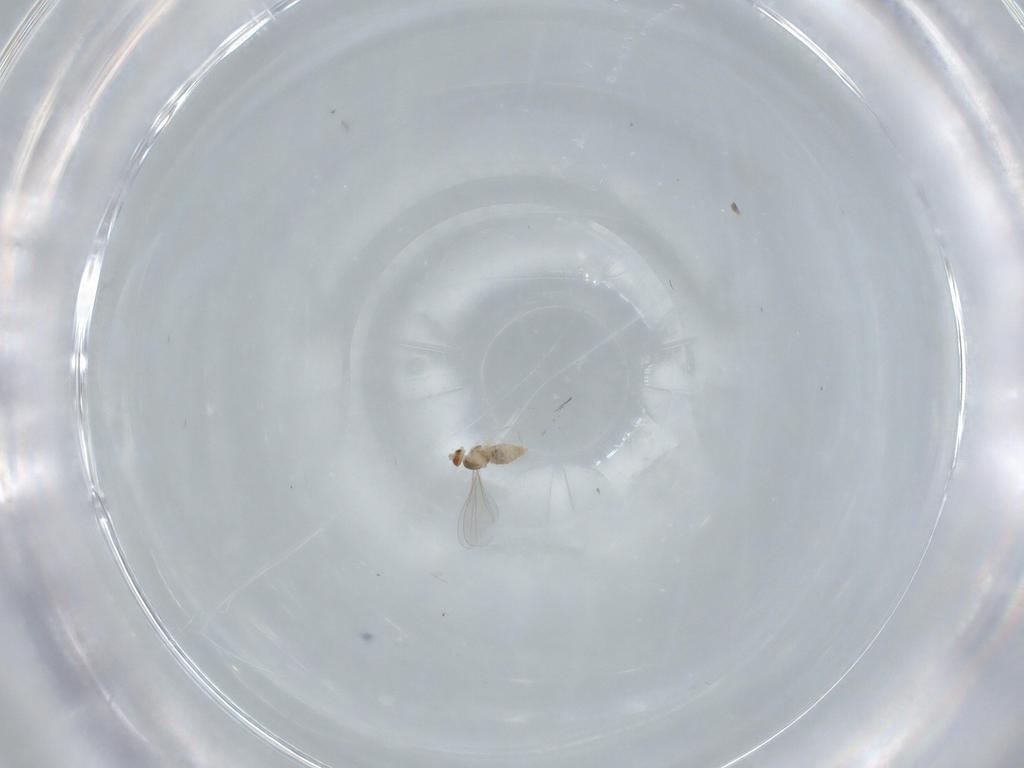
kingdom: Animalia
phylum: Arthropoda
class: Insecta
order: Diptera
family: Cecidomyiidae
